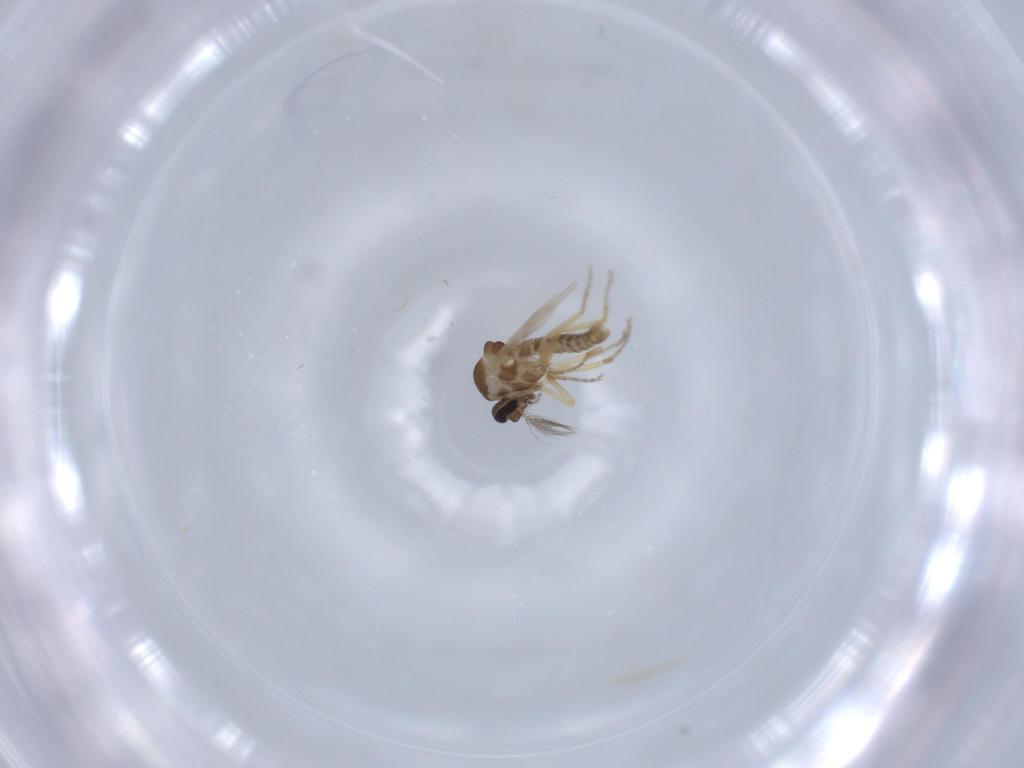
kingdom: Animalia
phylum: Arthropoda
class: Insecta
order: Diptera
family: Ceratopogonidae
